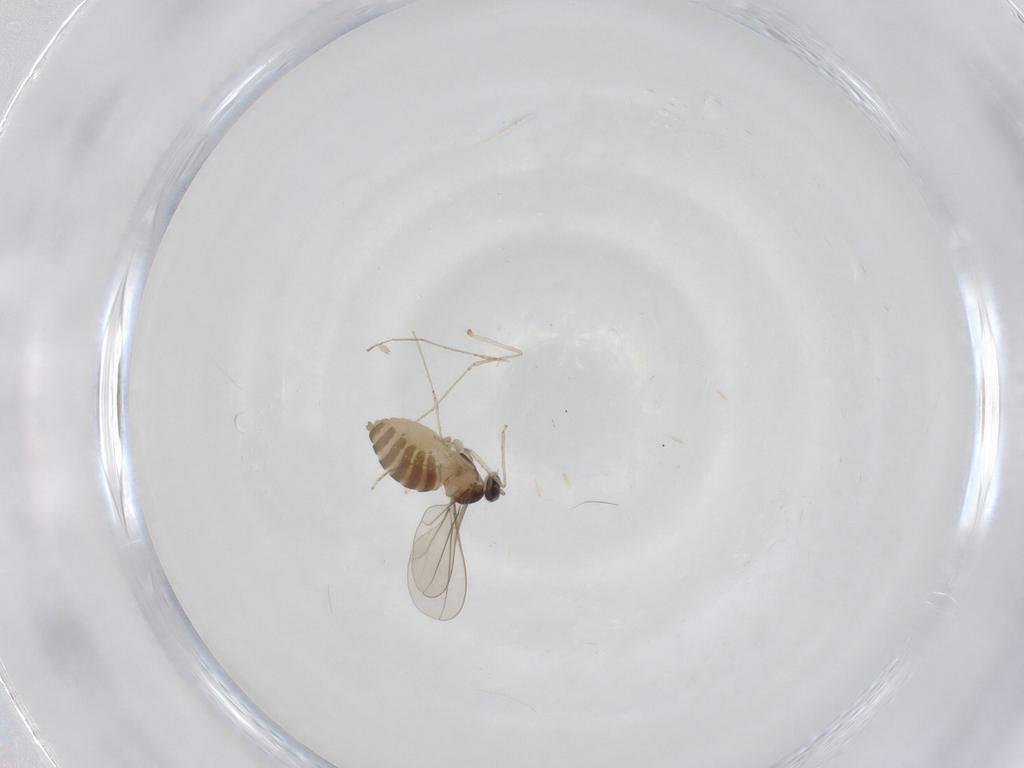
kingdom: Animalia
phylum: Arthropoda
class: Insecta
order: Diptera
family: Cecidomyiidae
